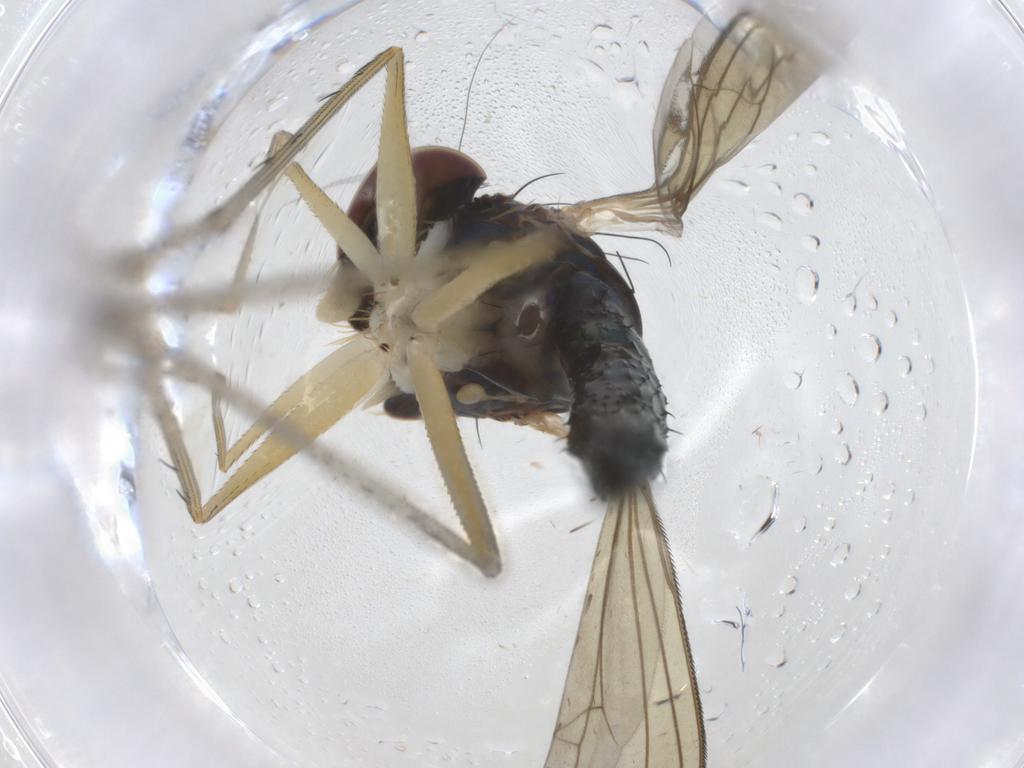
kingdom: Animalia
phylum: Arthropoda
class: Insecta
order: Diptera
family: Dolichopodidae
